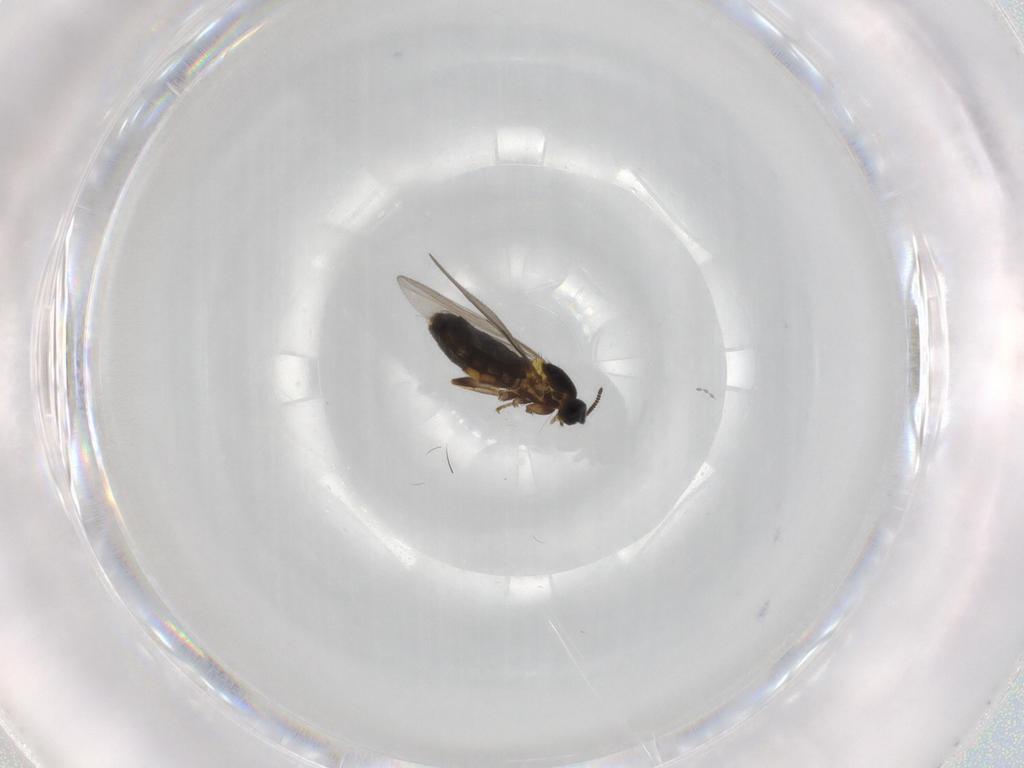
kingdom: Animalia
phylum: Arthropoda
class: Insecta
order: Diptera
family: Scatopsidae
